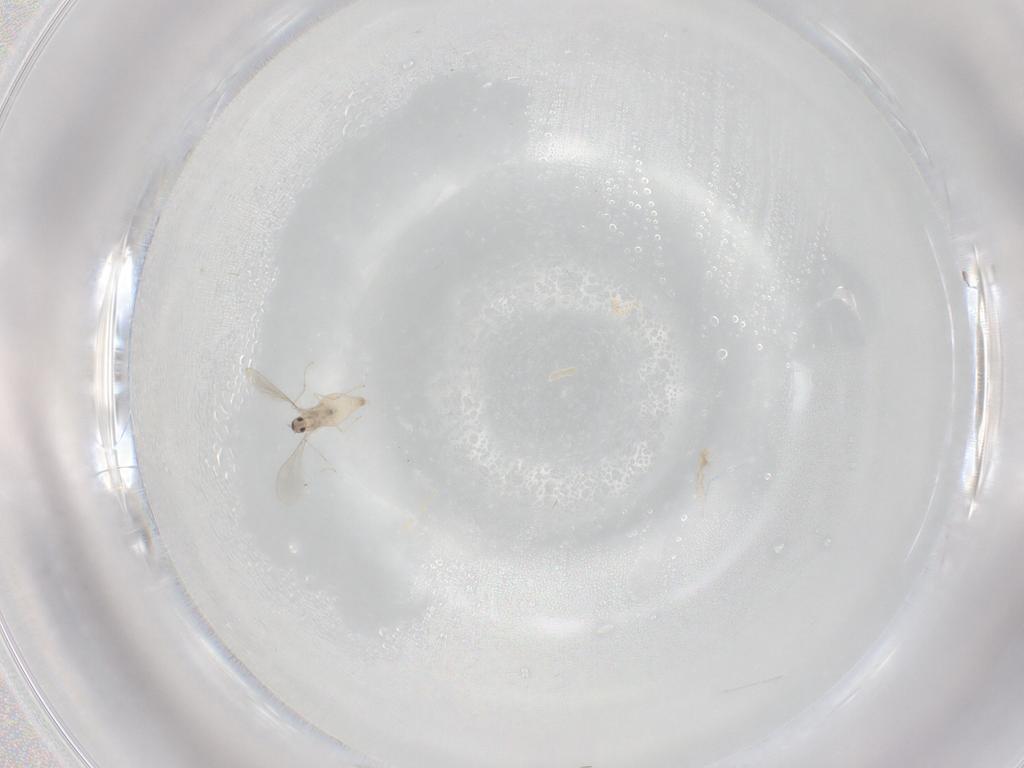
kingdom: Animalia
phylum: Arthropoda
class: Insecta
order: Diptera
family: Cecidomyiidae
